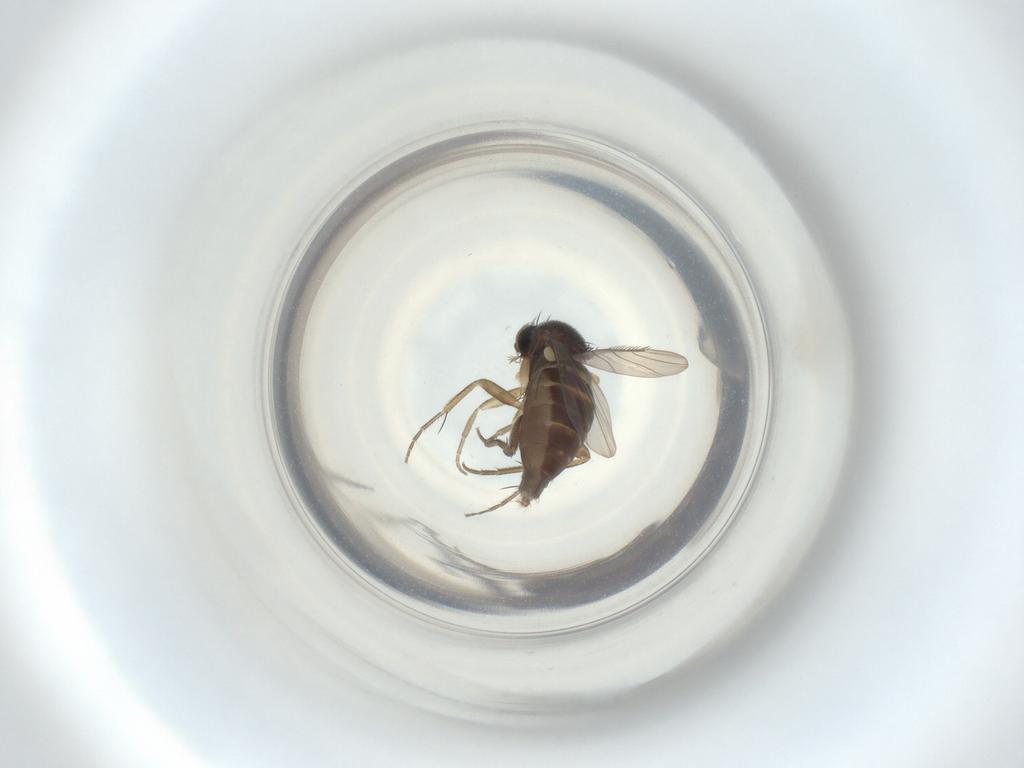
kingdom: Animalia
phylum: Arthropoda
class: Insecta
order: Diptera
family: Phoridae
